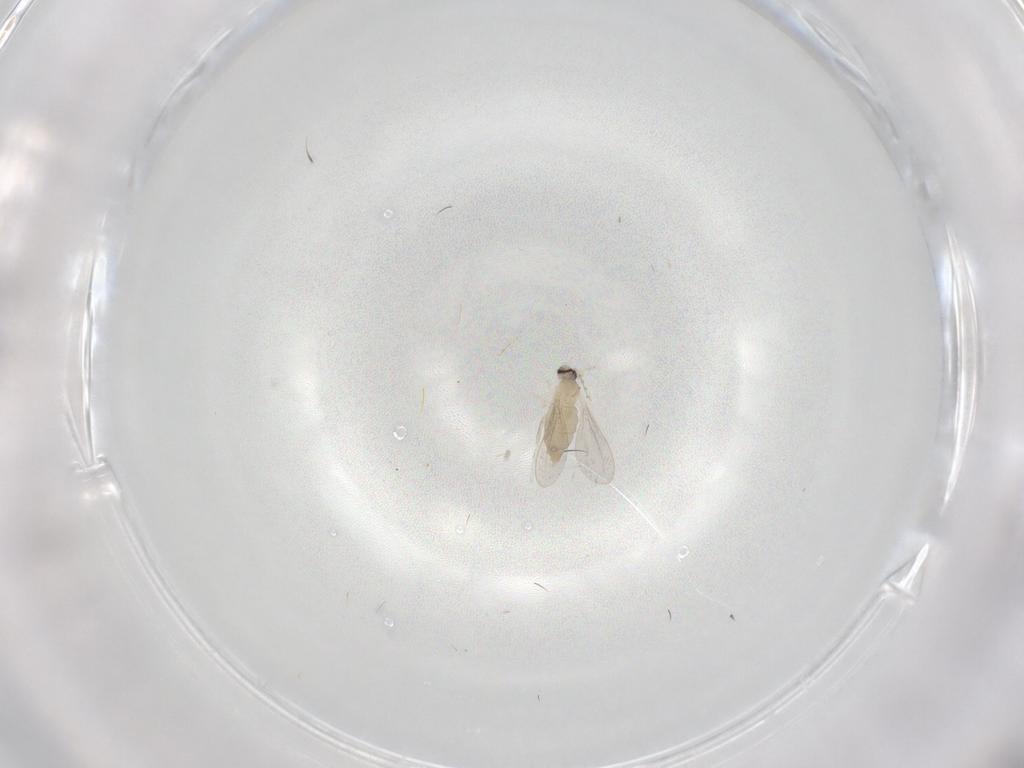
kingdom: Animalia
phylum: Arthropoda
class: Insecta
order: Diptera
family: Cecidomyiidae
